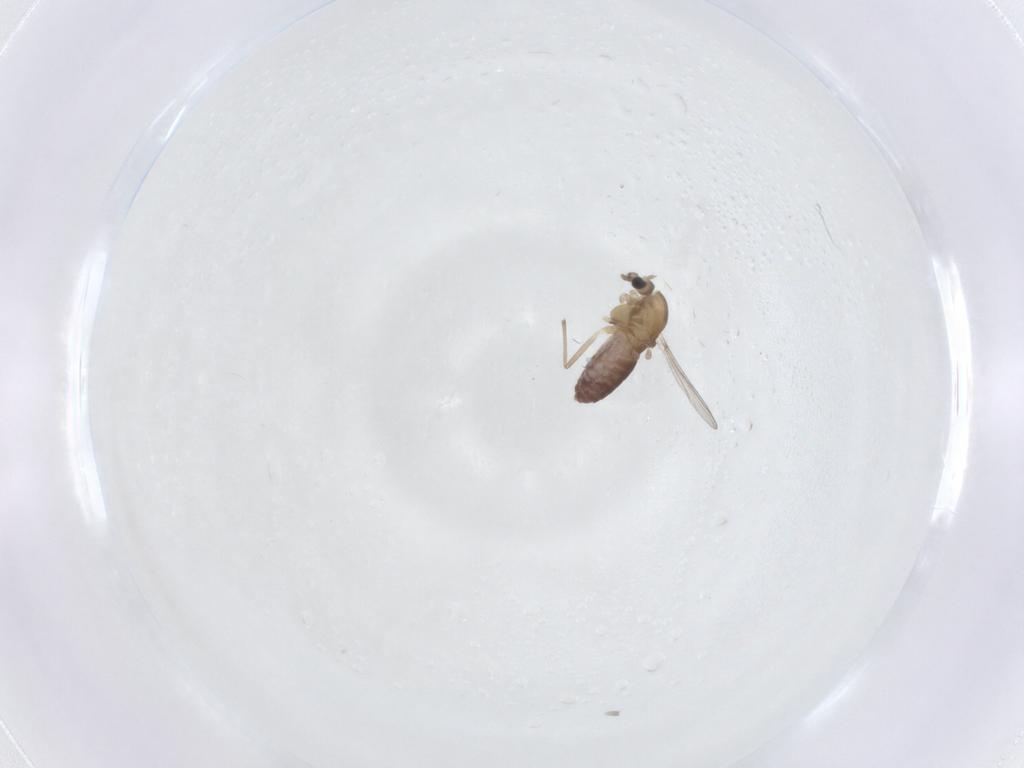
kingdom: Animalia
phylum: Arthropoda
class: Insecta
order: Diptera
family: Chironomidae
